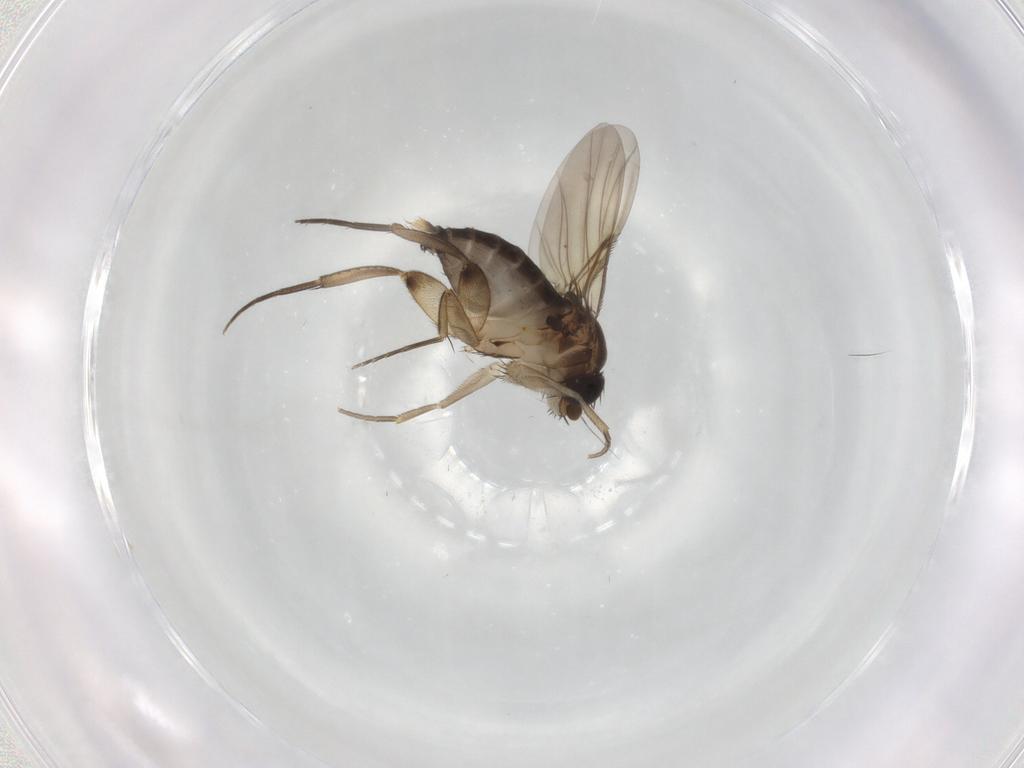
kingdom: Animalia
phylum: Arthropoda
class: Insecta
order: Diptera
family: Phoridae
